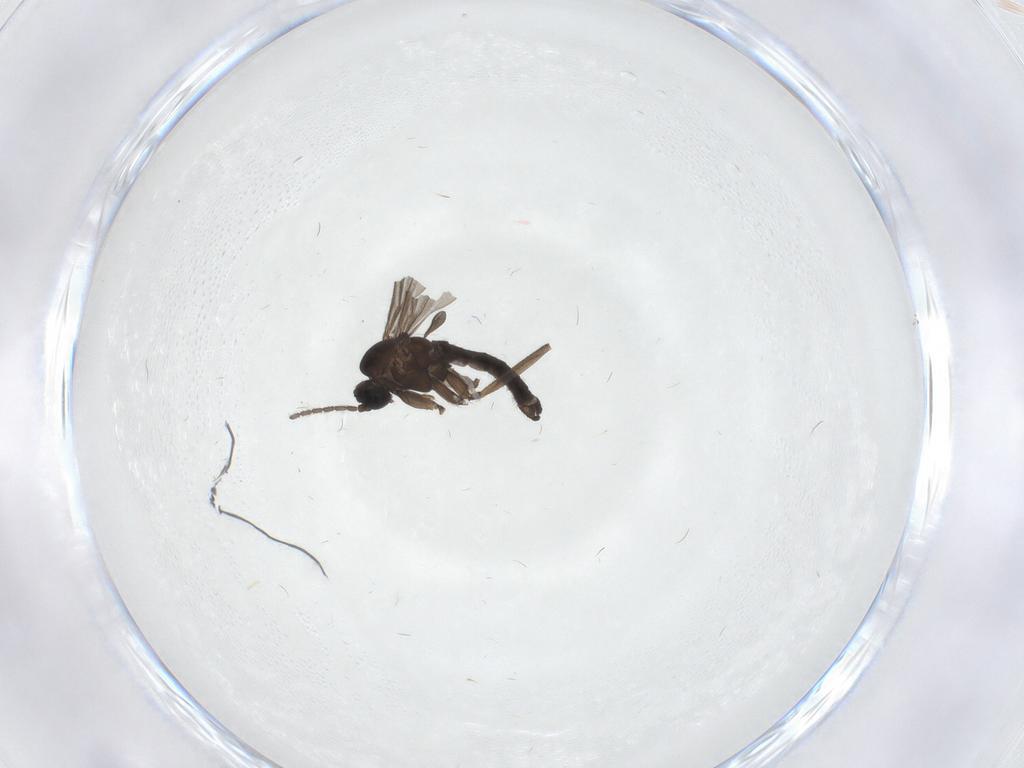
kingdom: Animalia
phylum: Arthropoda
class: Insecta
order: Diptera
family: Sciaridae
